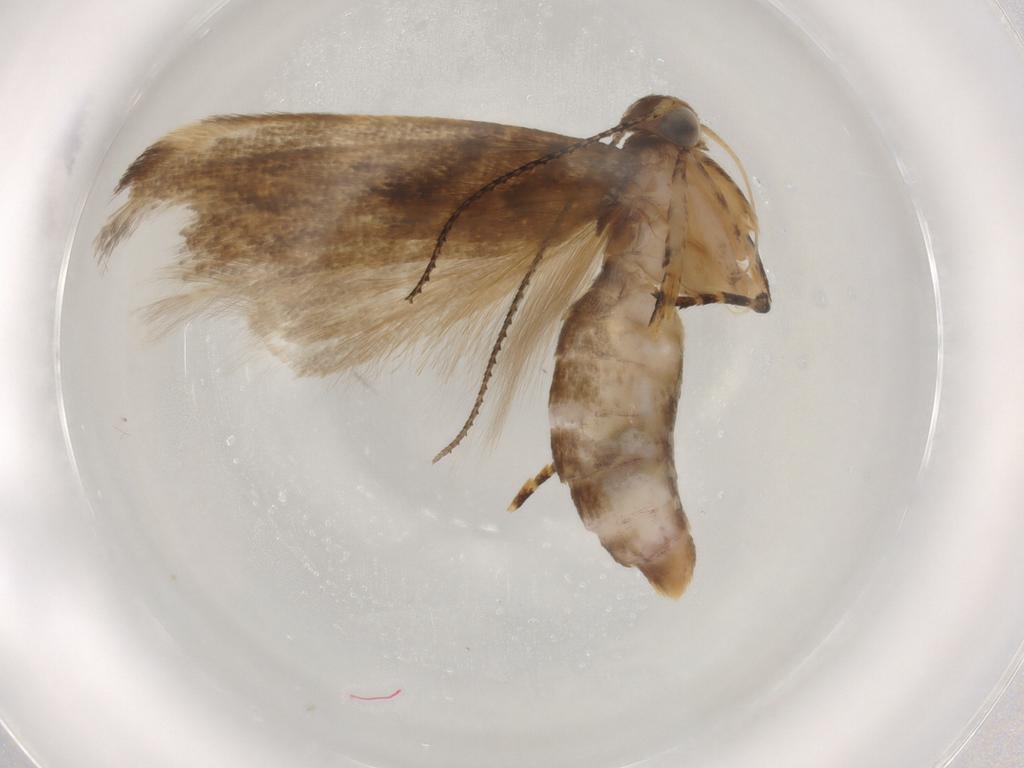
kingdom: Animalia
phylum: Arthropoda
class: Insecta
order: Lepidoptera
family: Gelechiidae
